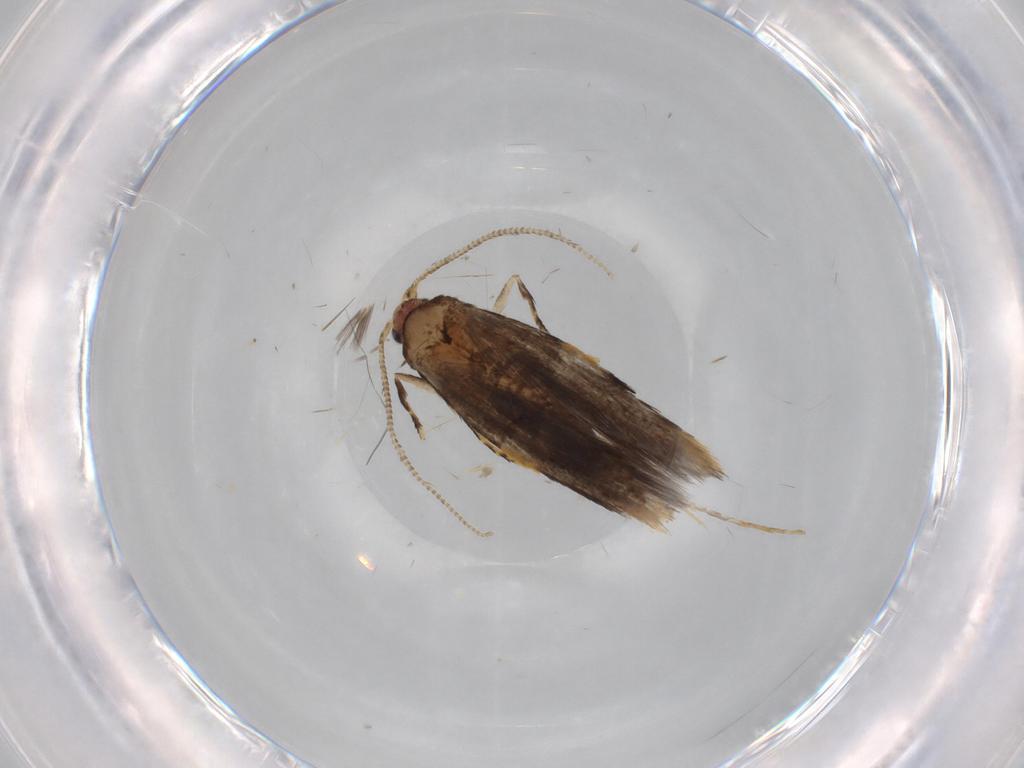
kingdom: Animalia
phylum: Arthropoda
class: Insecta
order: Lepidoptera
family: Tineidae
